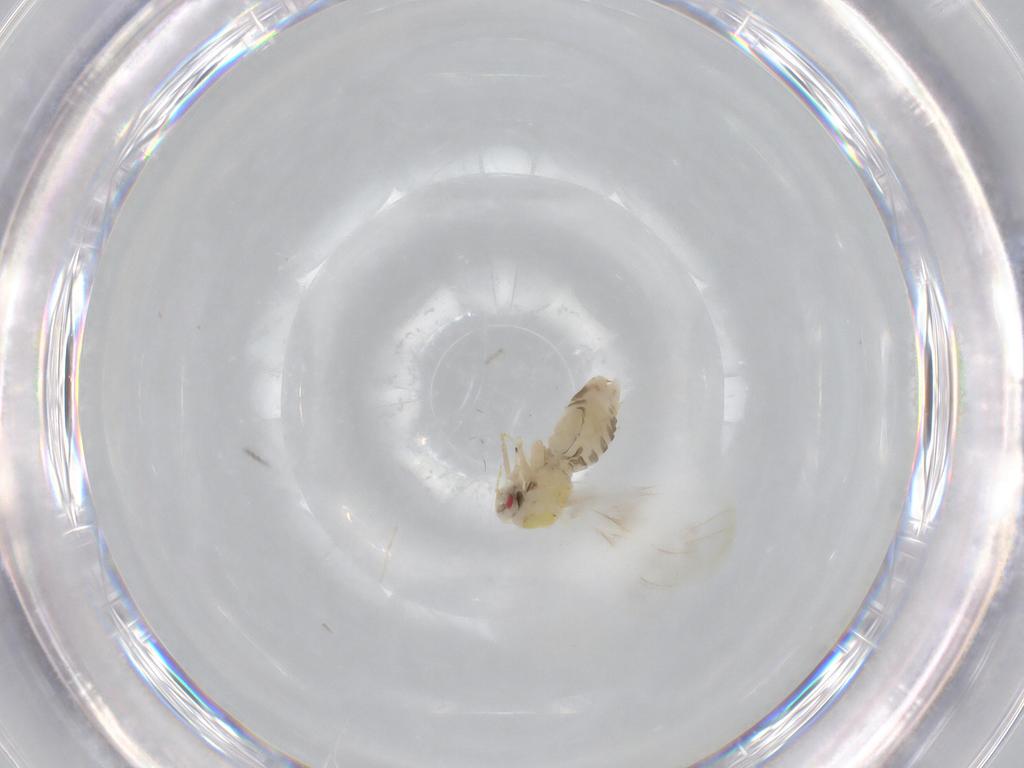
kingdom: Animalia
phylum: Arthropoda
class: Insecta
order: Hemiptera
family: Aleyrodidae
